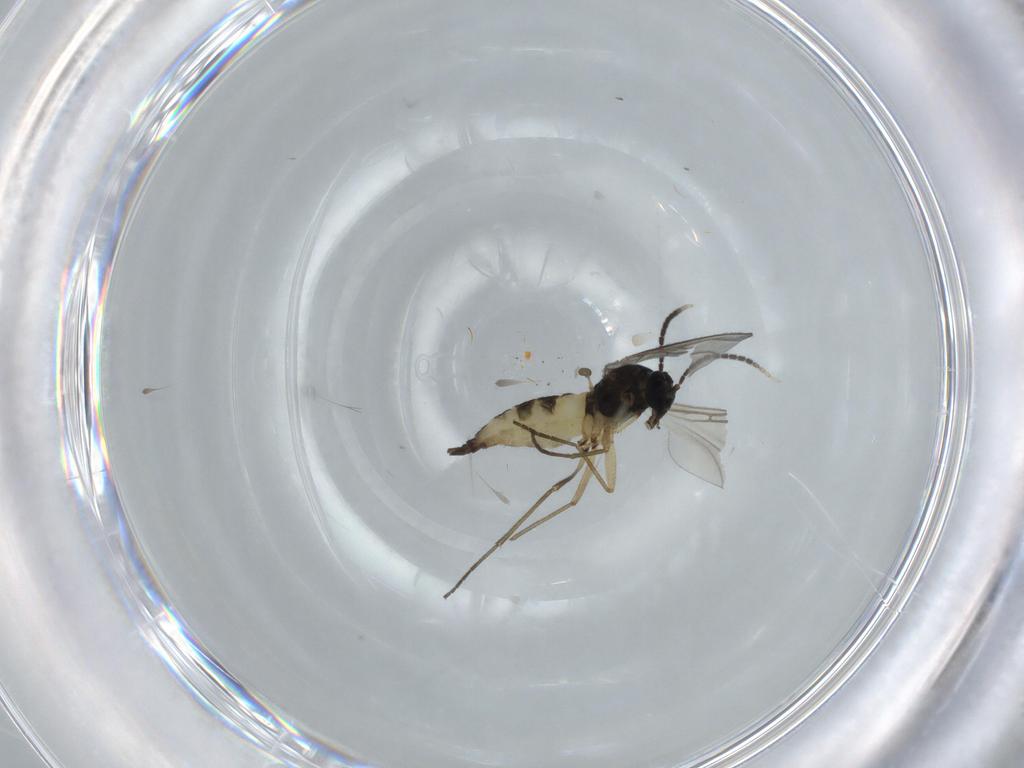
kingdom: Animalia
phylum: Arthropoda
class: Insecta
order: Diptera
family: Sciaridae
